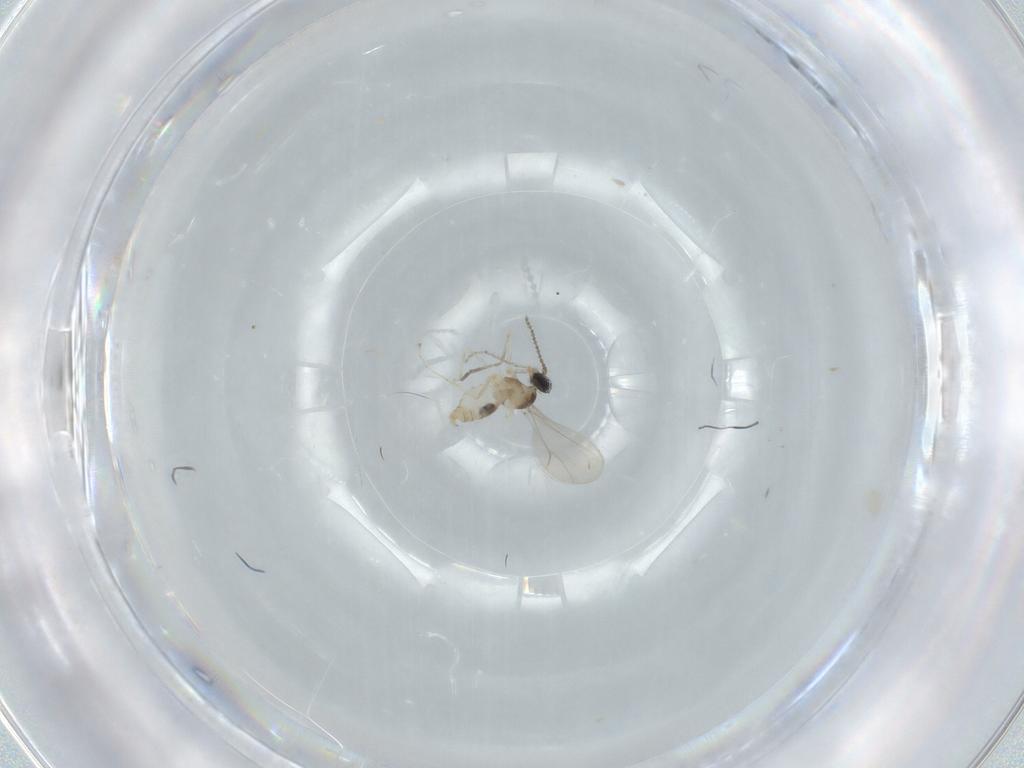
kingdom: Animalia
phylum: Arthropoda
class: Insecta
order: Diptera
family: Cecidomyiidae
